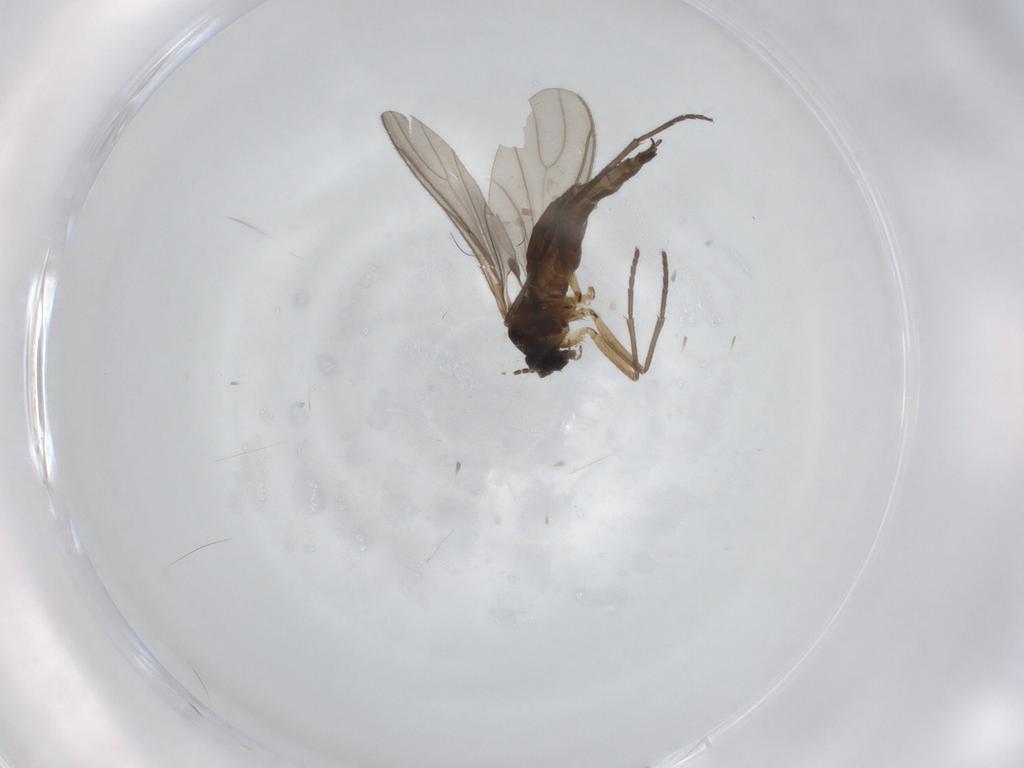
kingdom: Animalia
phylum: Arthropoda
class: Insecta
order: Diptera
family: Sciaridae
